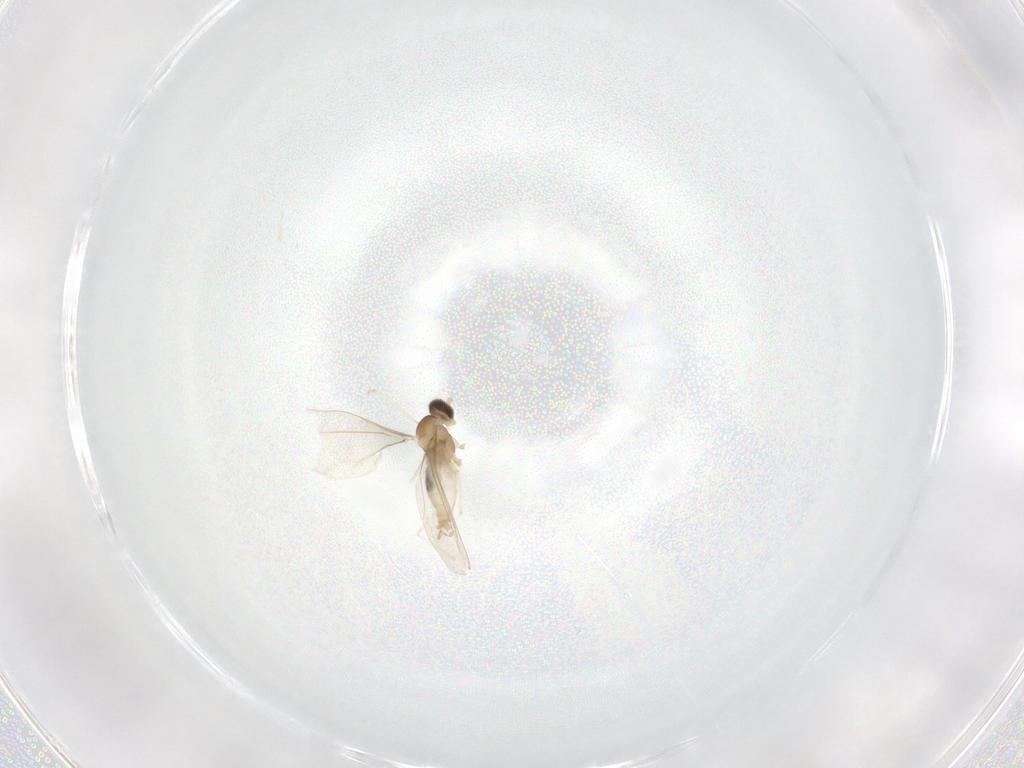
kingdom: Animalia
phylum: Arthropoda
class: Insecta
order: Diptera
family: Cecidomyiidae
